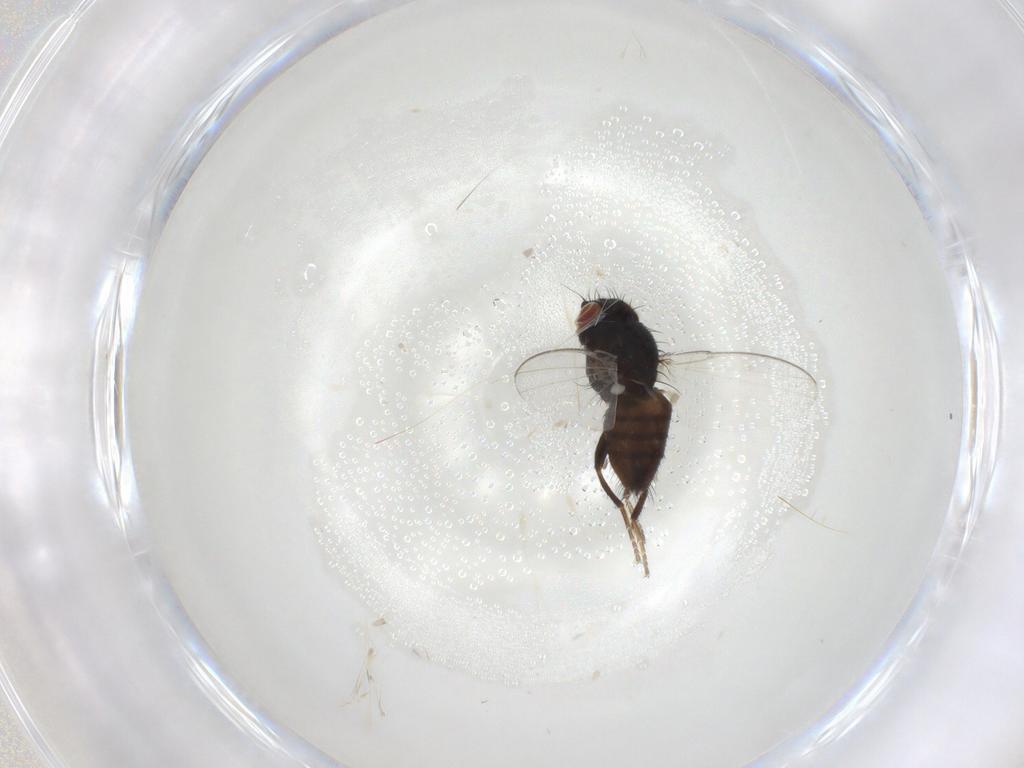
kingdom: Animalia
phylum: Arthropoda
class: Insecta
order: Diptera
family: Milichiidae
